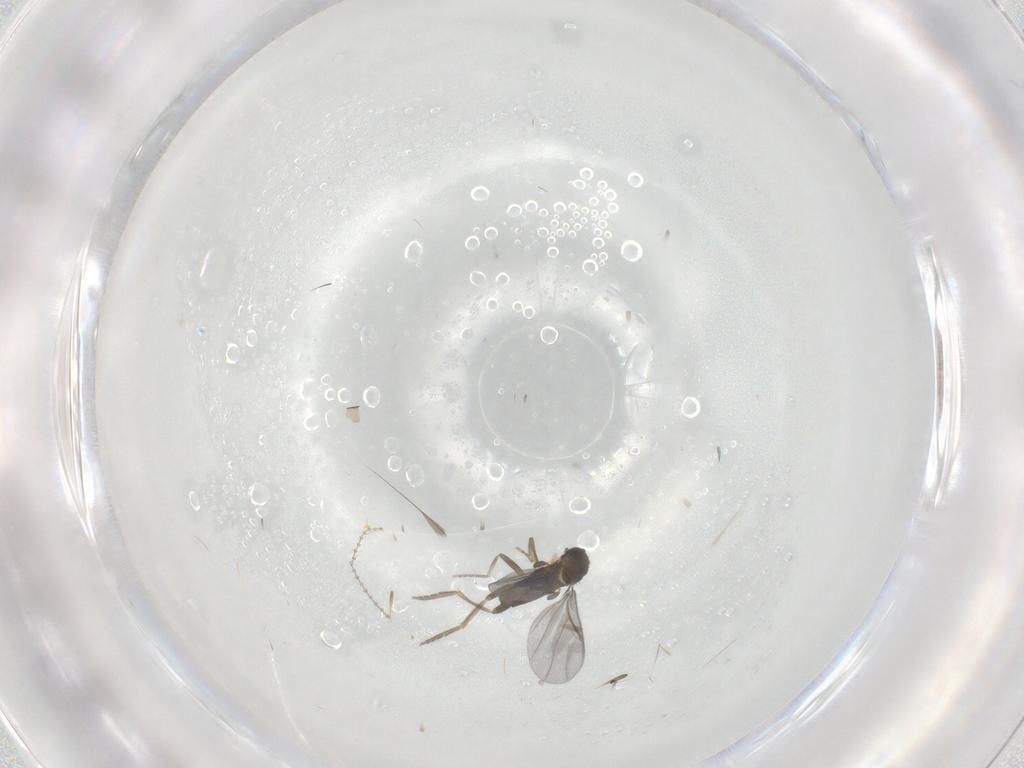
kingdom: Animalia
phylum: Arthropoda
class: Insecta
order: Diptera
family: Cecidomyiidae
